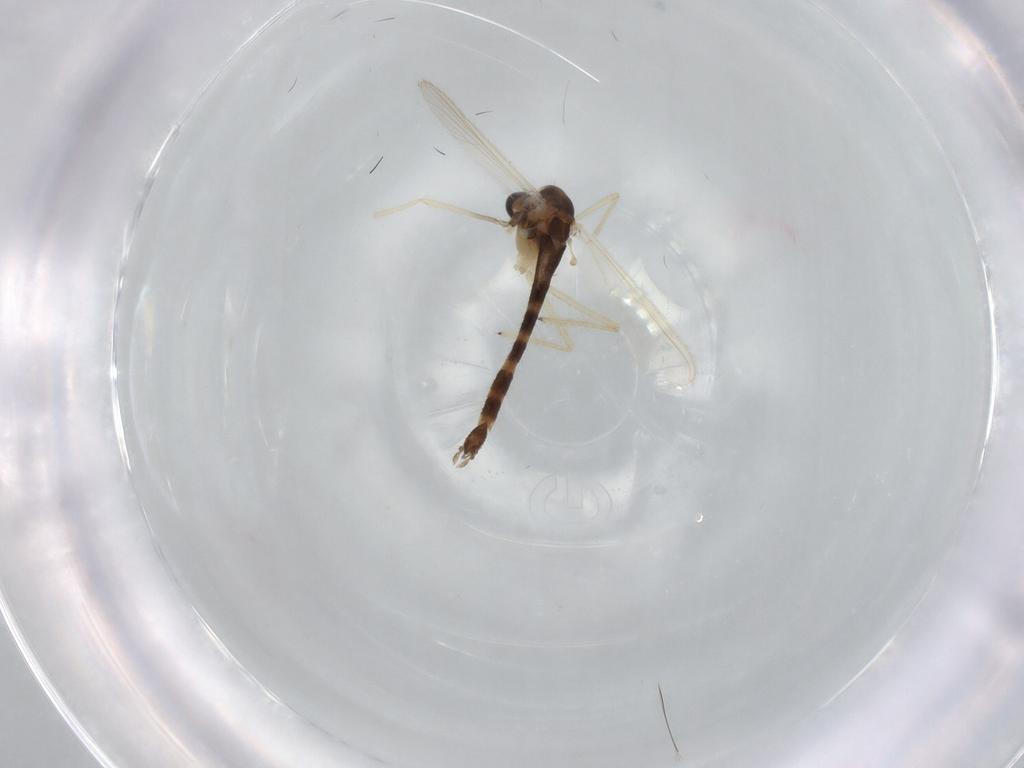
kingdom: Animalia
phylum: Arthropoda
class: Insecta
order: Diptera
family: Chironomidae
